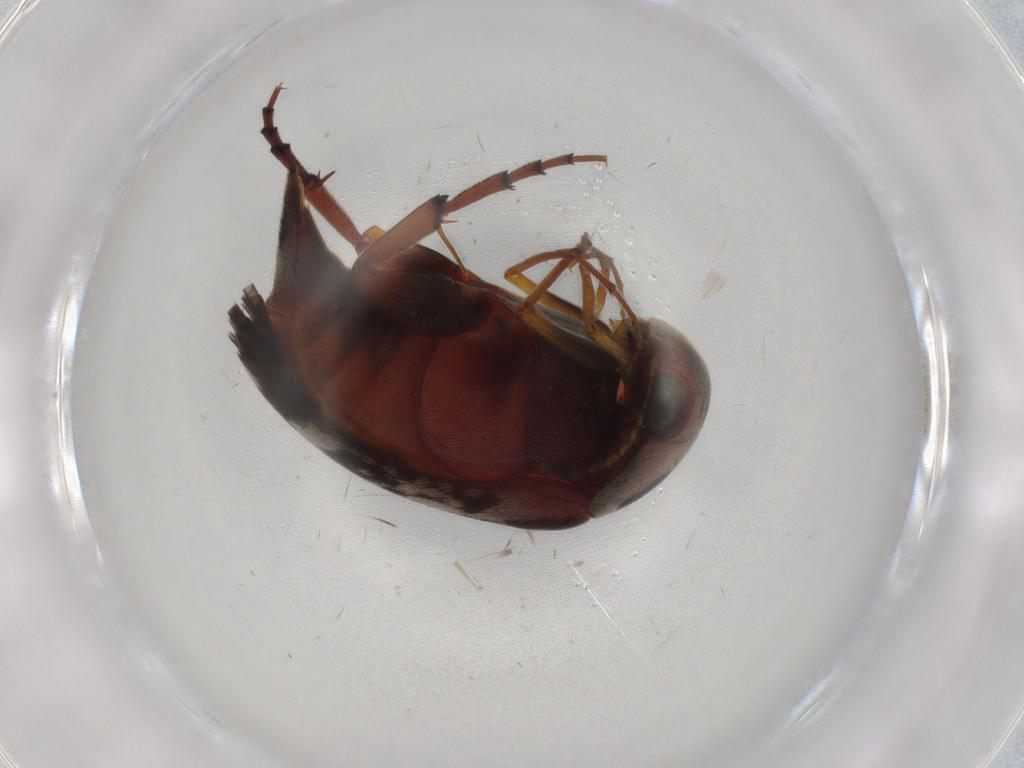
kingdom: Animalia
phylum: Arthropoda
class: Insecta
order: Coleoptera
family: Mordellidae
